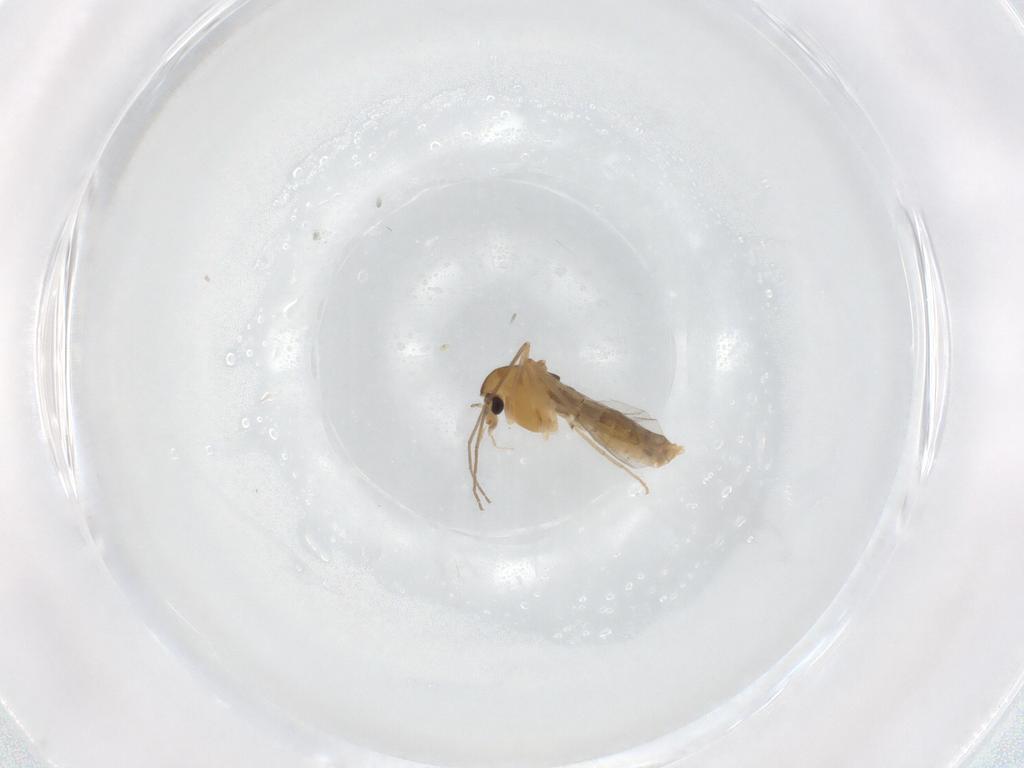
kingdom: Animalia
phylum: Arthropoda
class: Insecta
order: Diptera
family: Chironomidae
